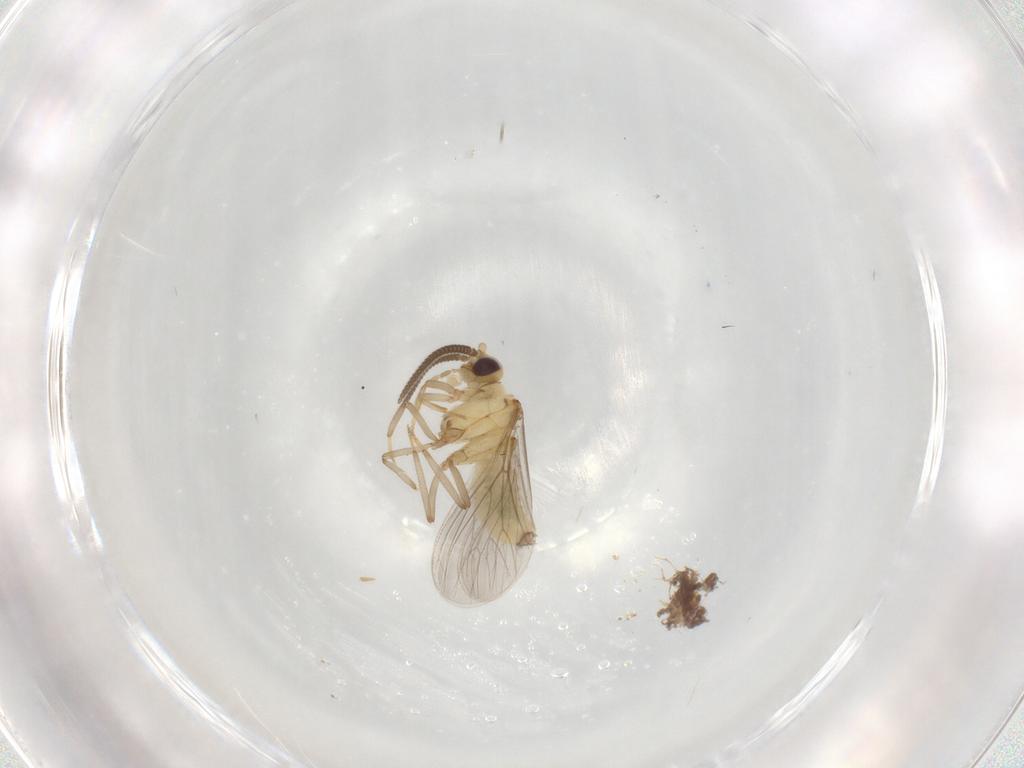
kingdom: Animalia
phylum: Arthropoda
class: Insecta
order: Neuroptera
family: Coniopterygidae
